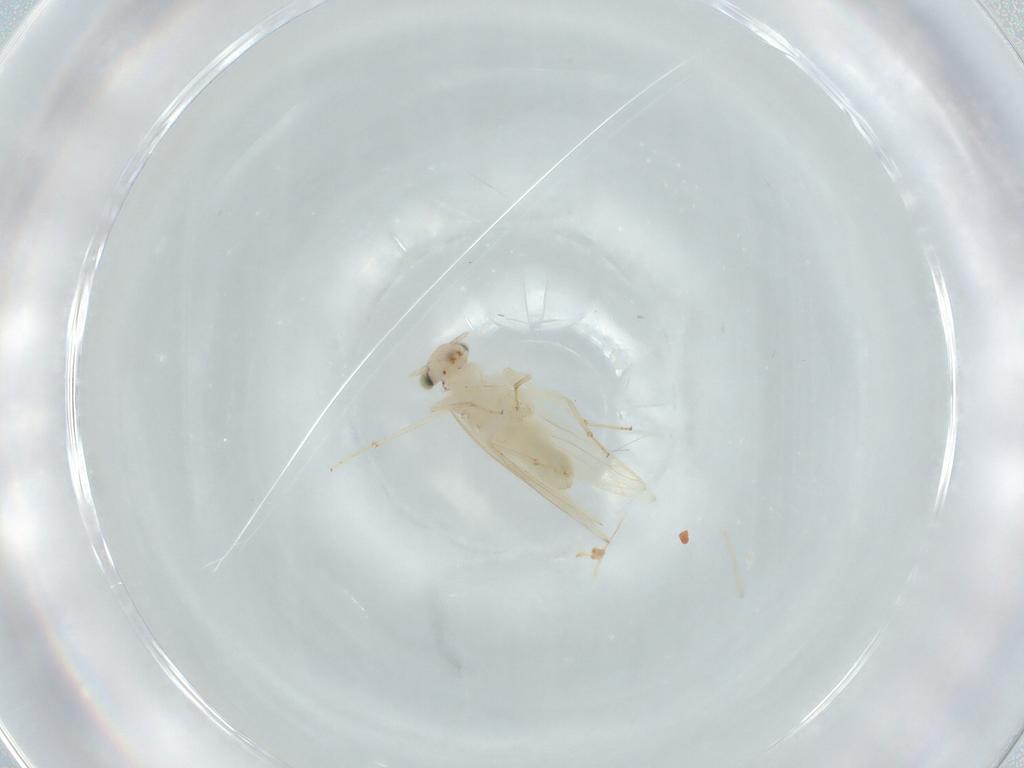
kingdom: Animalia
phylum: Arthropoda
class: Insecta
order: Psocodea
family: Lepidopsocidae
